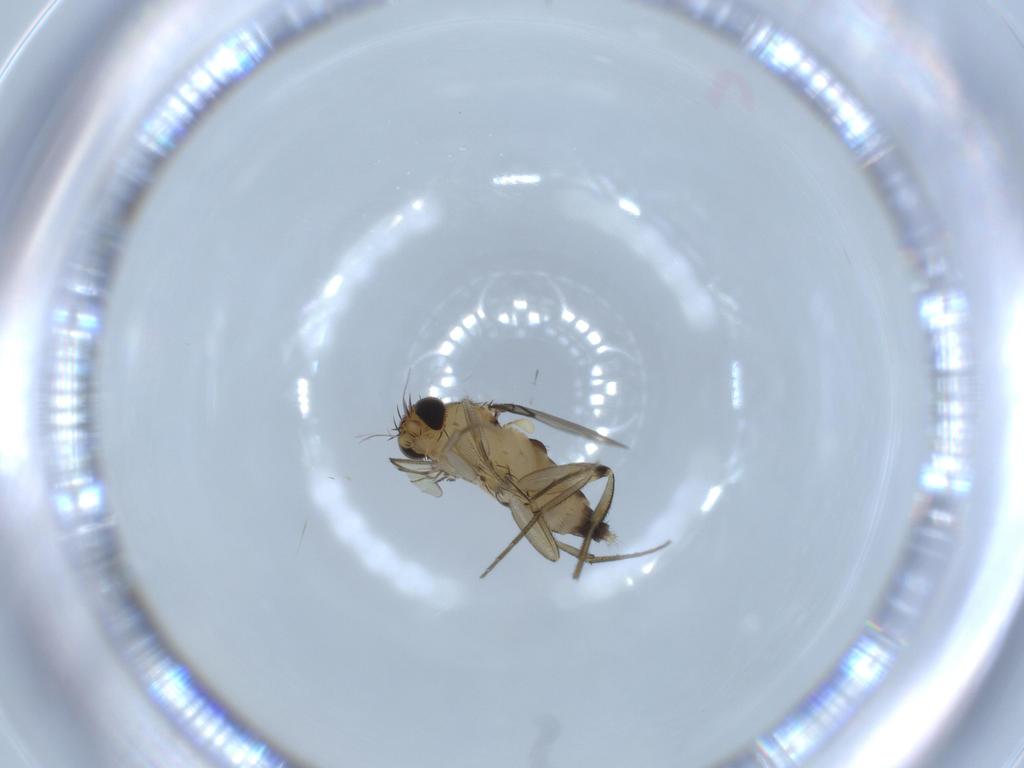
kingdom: Animalia
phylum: Arthropoda
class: Insecta
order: Diptera
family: Phoridae
